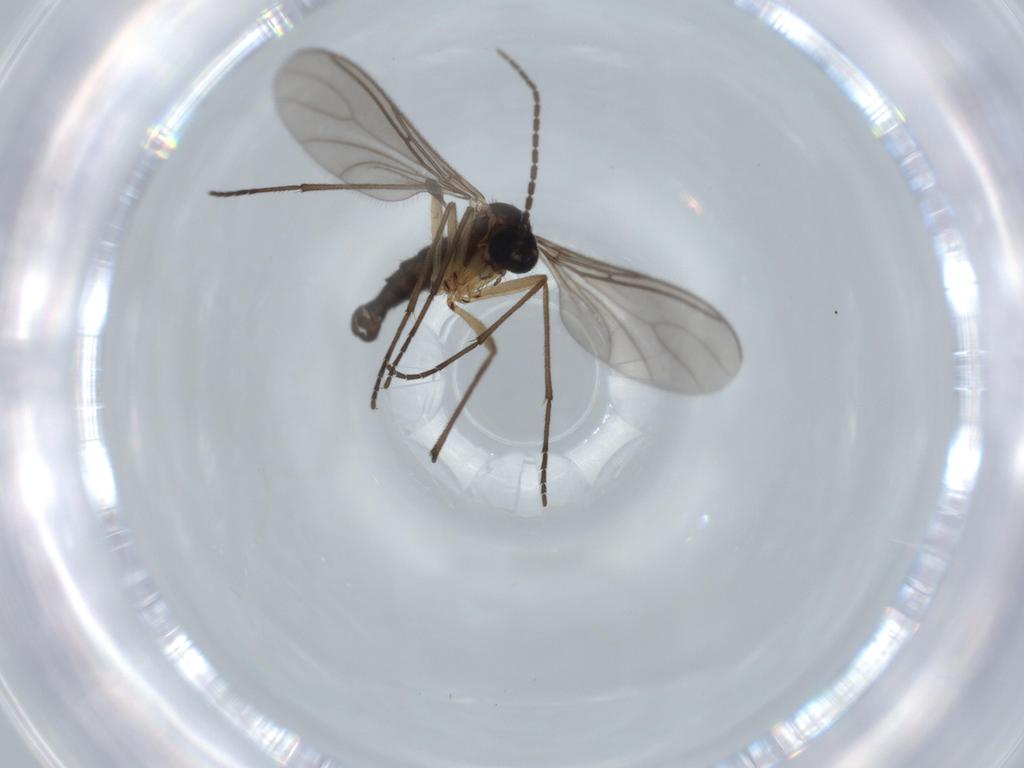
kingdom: Animalia
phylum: Arthropoda
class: Insecta
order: Diptera
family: Sciaridae
